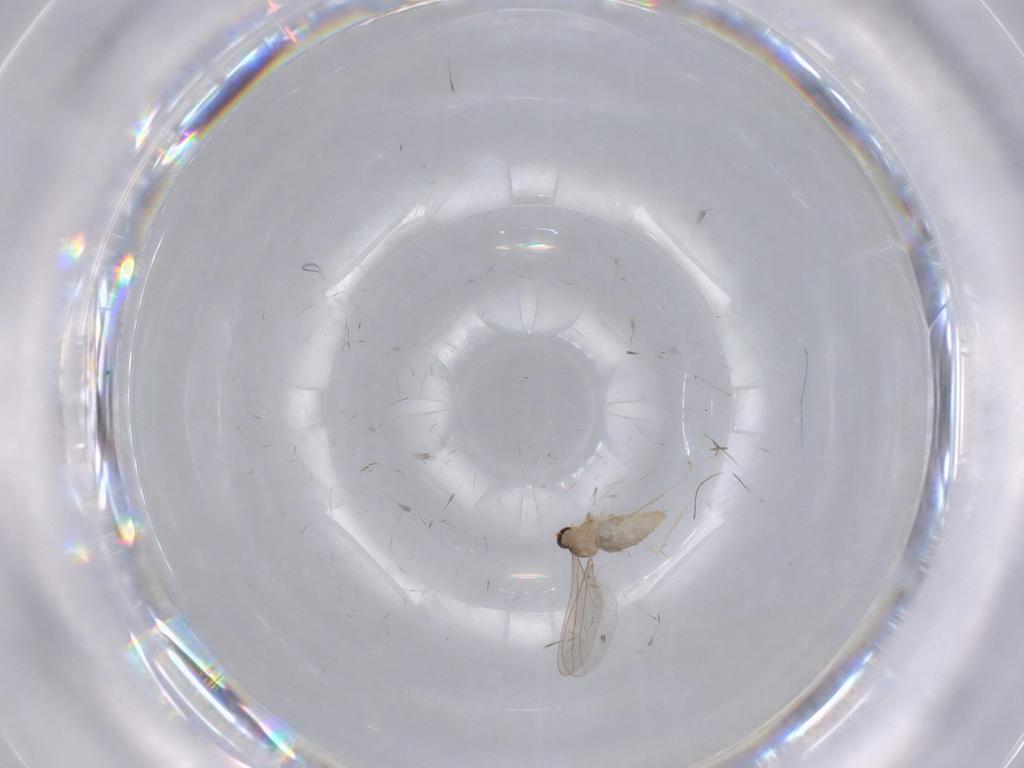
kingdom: Animalia
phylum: Arthropoda
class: Insecta
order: Diptera
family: Cecidomyiidae
